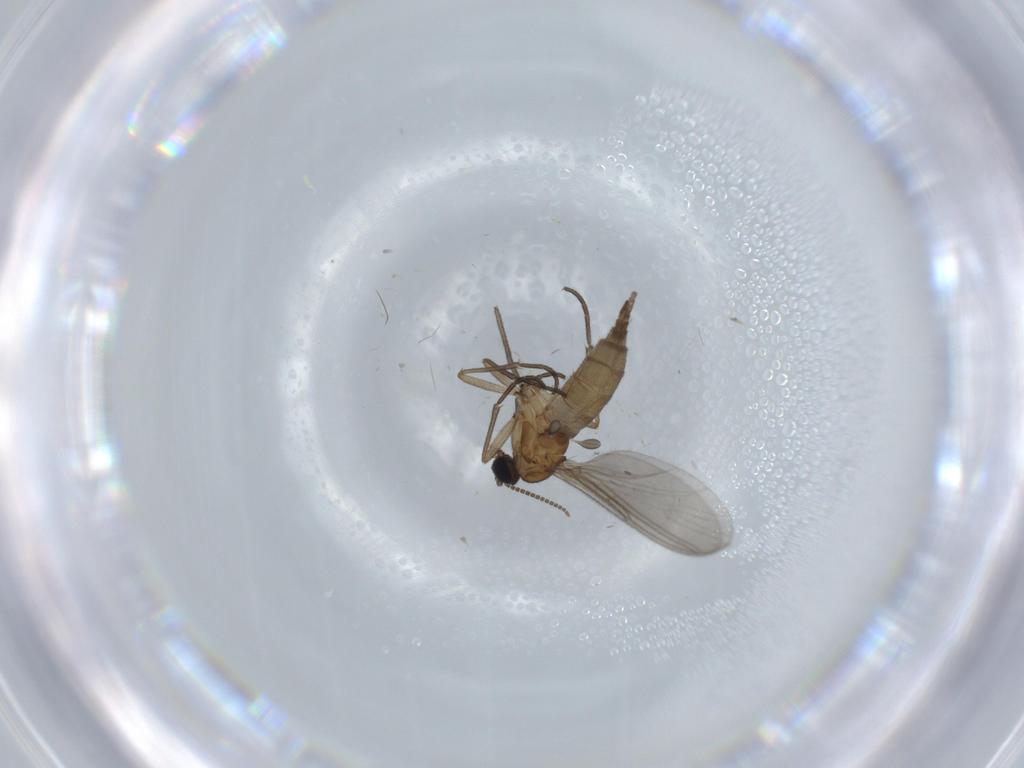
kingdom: Animalia
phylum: Arthropoda
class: Insecta
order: Diptera
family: Sciaridae
